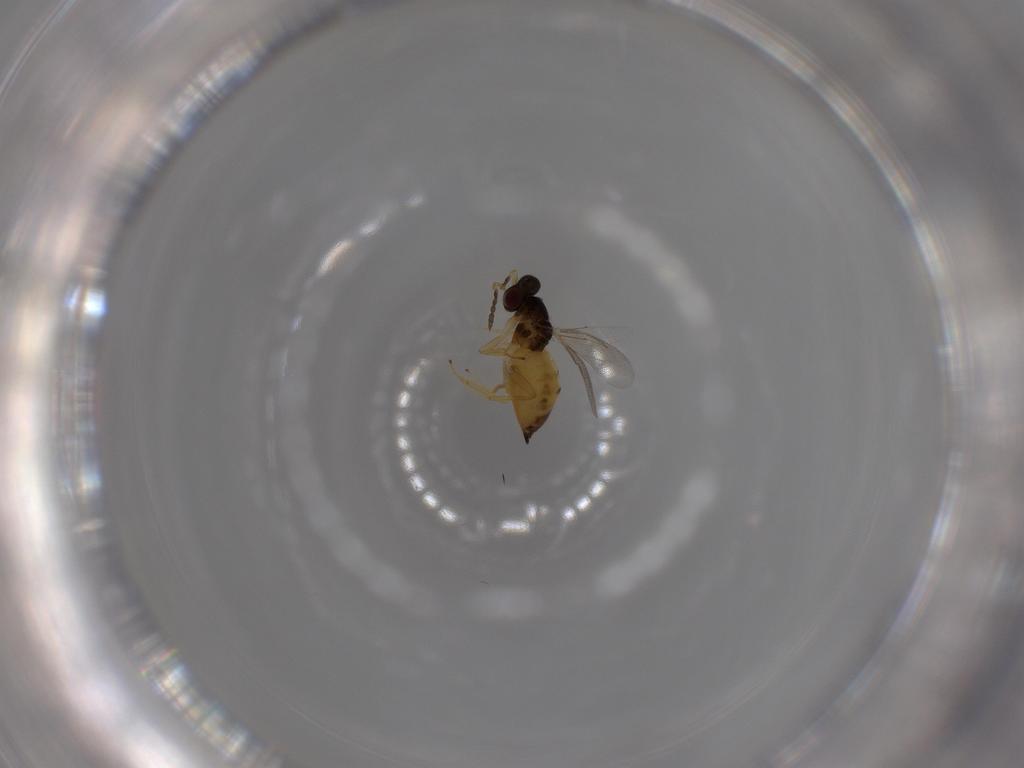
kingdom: Animalia
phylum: Arthropoda
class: Insecta
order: Hymenoptera
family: Eulophidae
